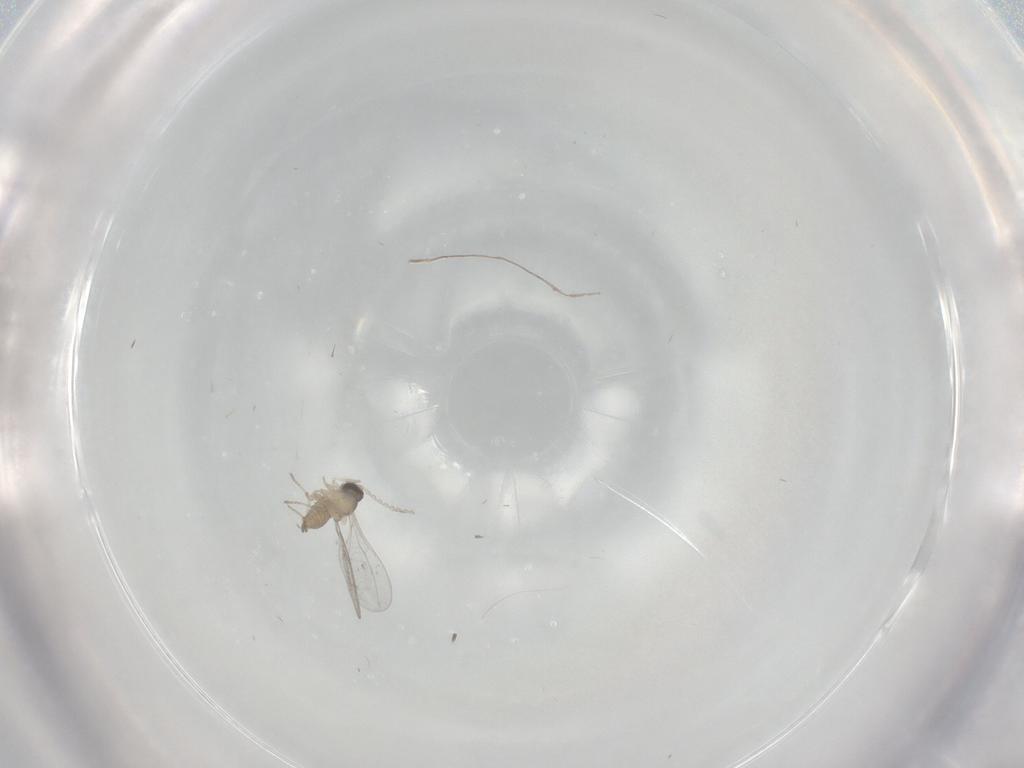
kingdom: Animalia
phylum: Arthropoda
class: Insecta
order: Diptera
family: Cecidomyiidae
